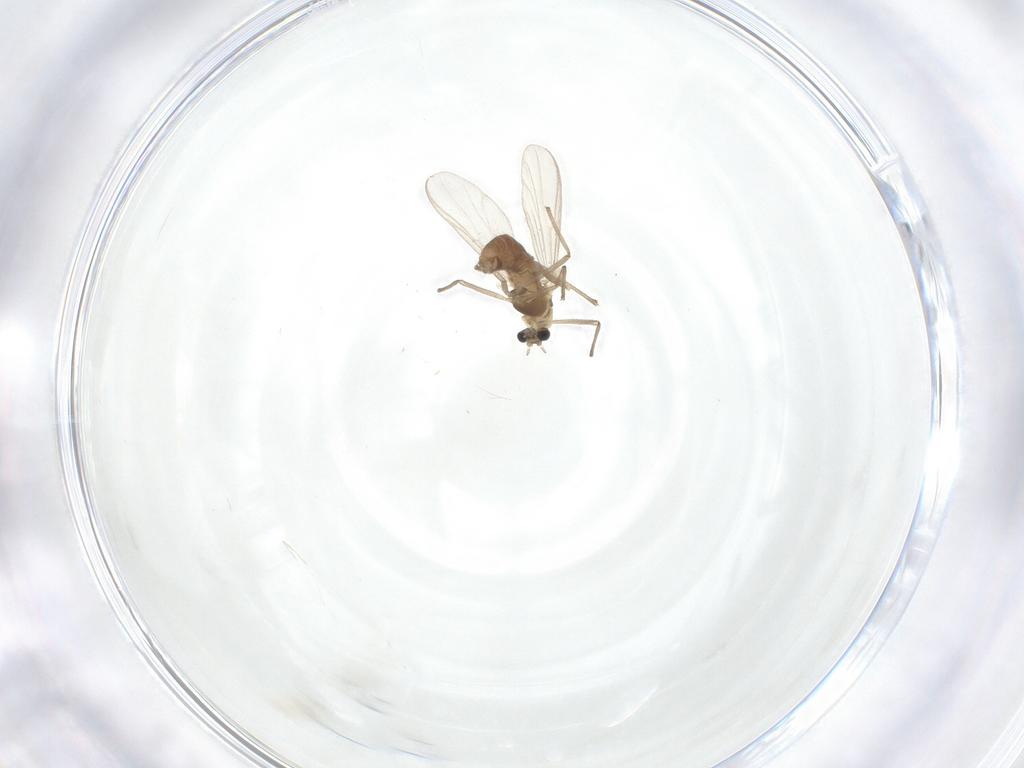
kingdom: Animalia
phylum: Arthropoda
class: Insecta
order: Diptera
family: Chironomidae
